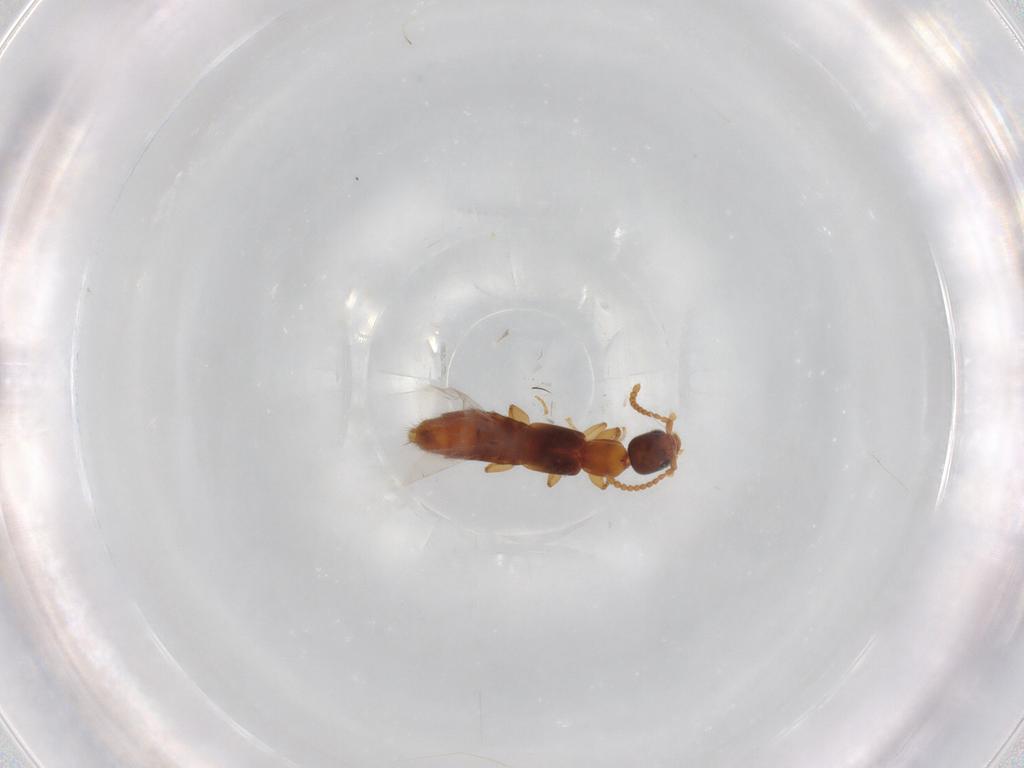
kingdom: Animalia
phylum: Arthropoda
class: Insecta
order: Coleoptera
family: Staphylinidae
